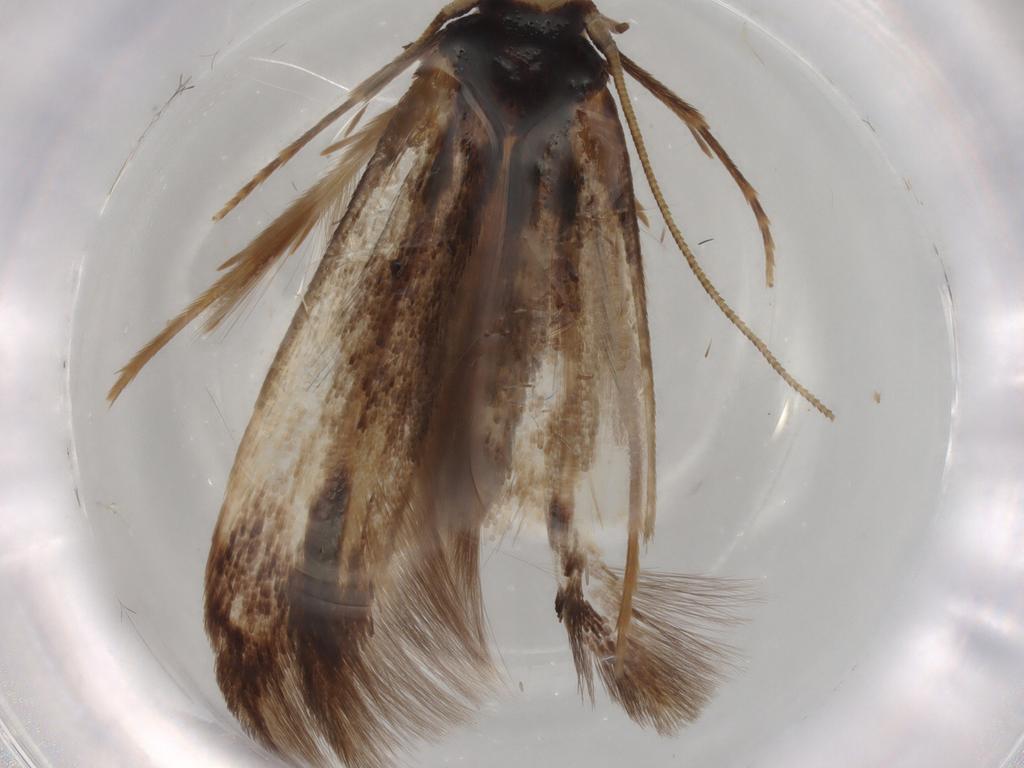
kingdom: Animalia
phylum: Arthropoda
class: Insecta
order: Lepidoptera
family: Tineidae
